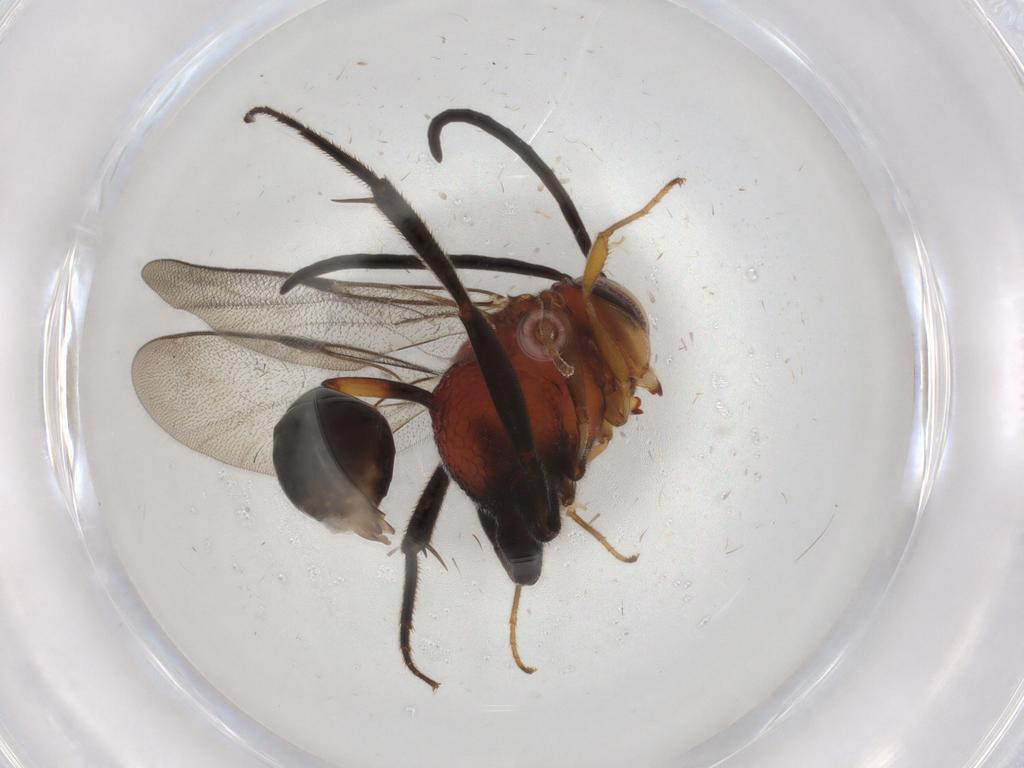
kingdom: Animalia
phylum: Arthropoda
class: Insecta
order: Hymenoptera
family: Evaniidae
